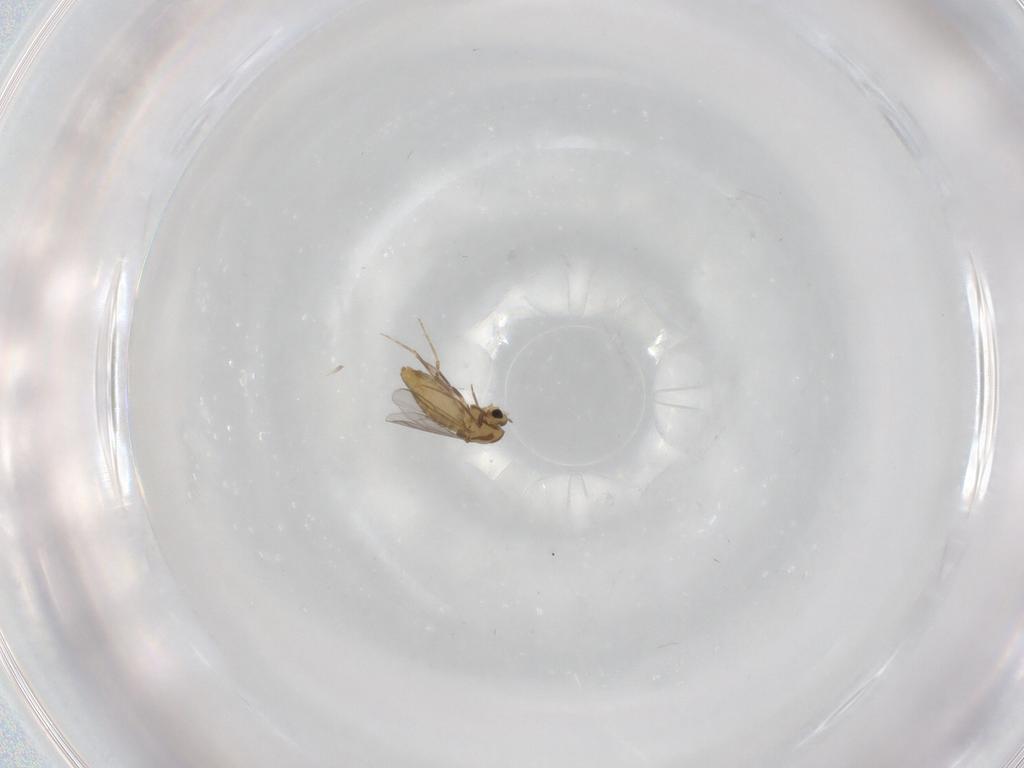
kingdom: Animalia
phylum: Arthropoda
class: Insecta
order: Diptera
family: Chironomidae
